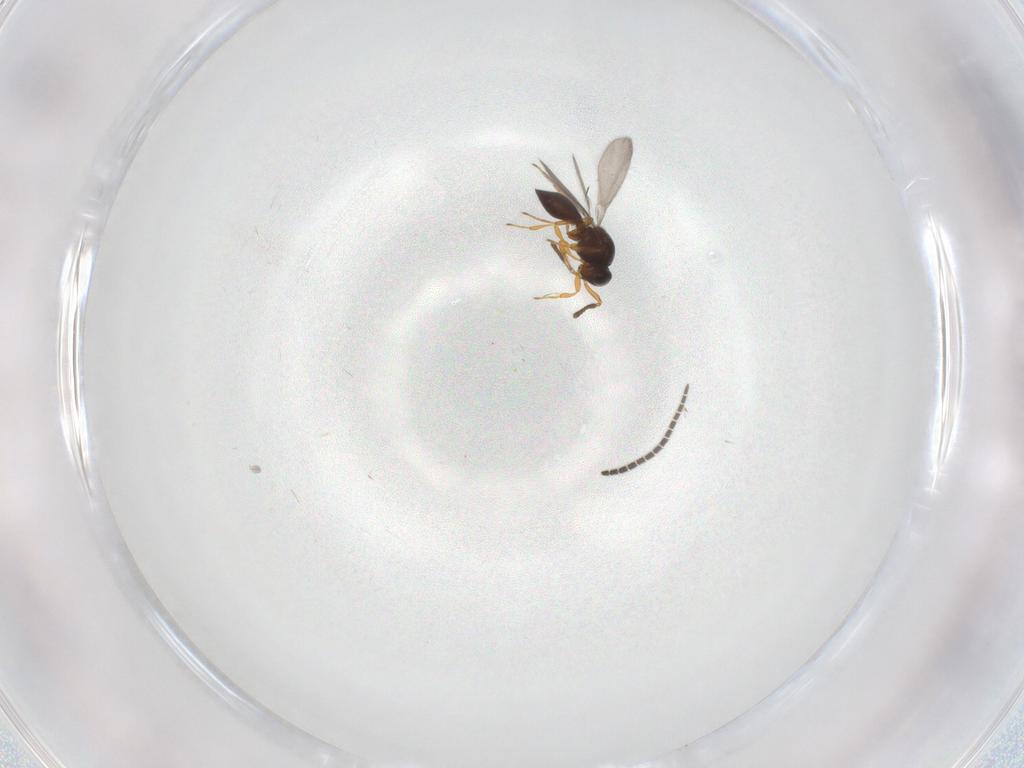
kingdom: Animalia
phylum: Arthropoda
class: Insecta
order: Hymenoptera
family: Platygastridae
